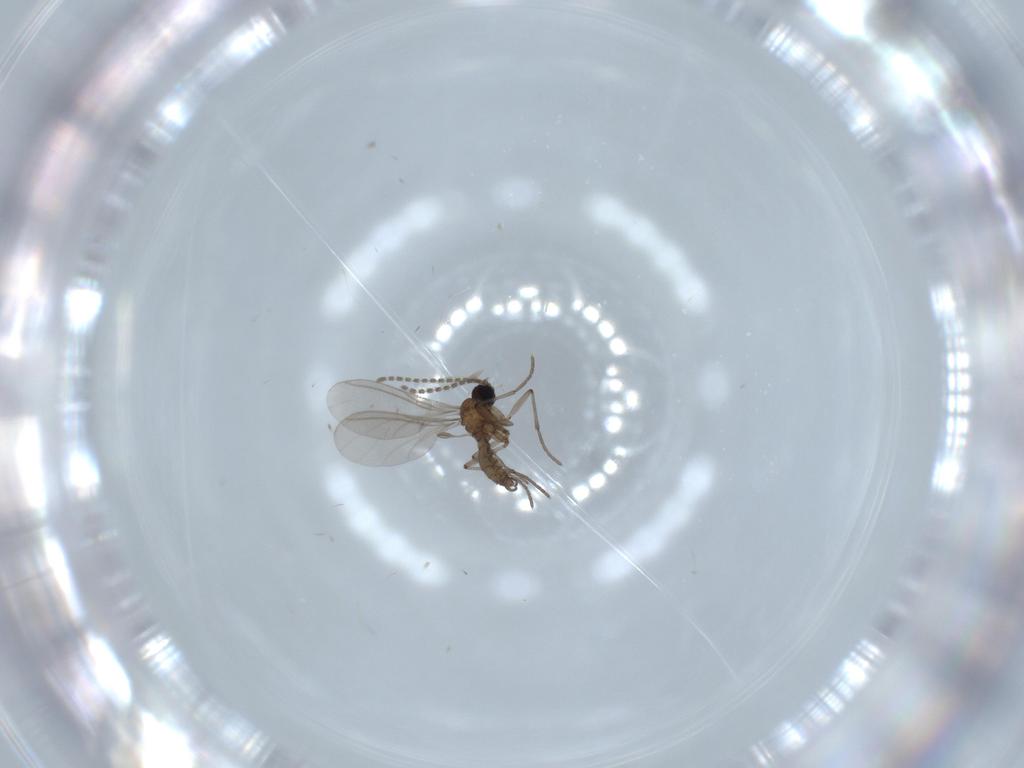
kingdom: Animalia
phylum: Arthropoda
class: Insecta
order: Diptera
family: Sciaridae
